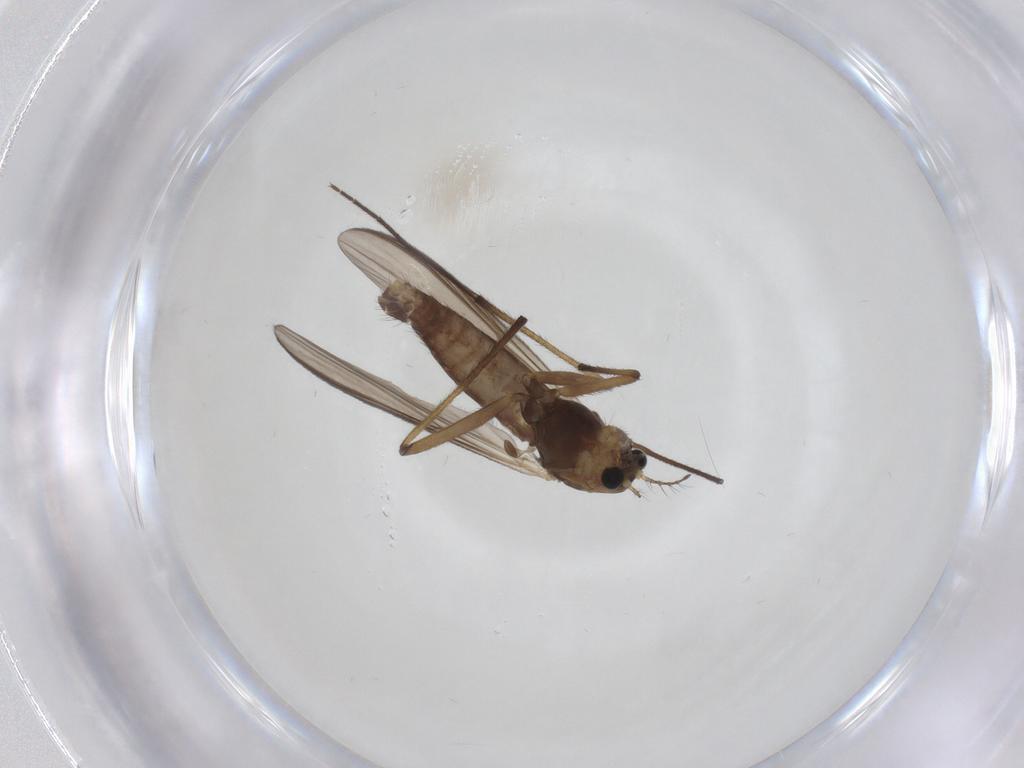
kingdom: Animalia
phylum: Arthropoda
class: Insecta
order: Diptera
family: Chironomidae
